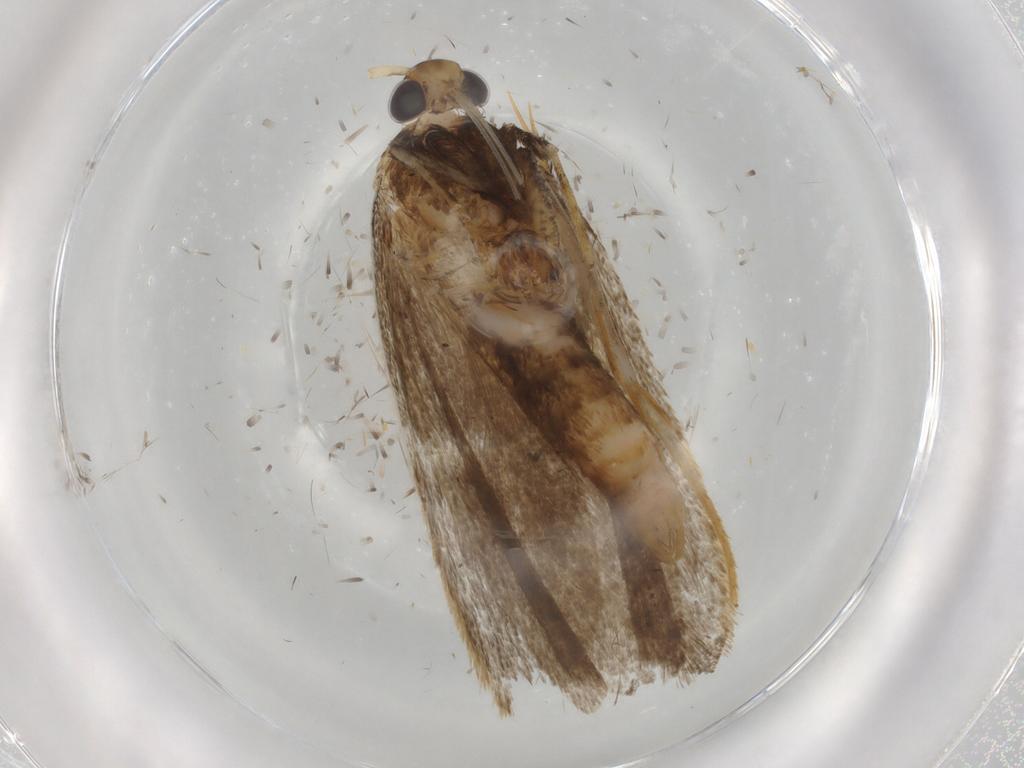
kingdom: Animalia
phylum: Arthropoda
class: Insecta
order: Lepidoptera
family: Lecithoceridae
